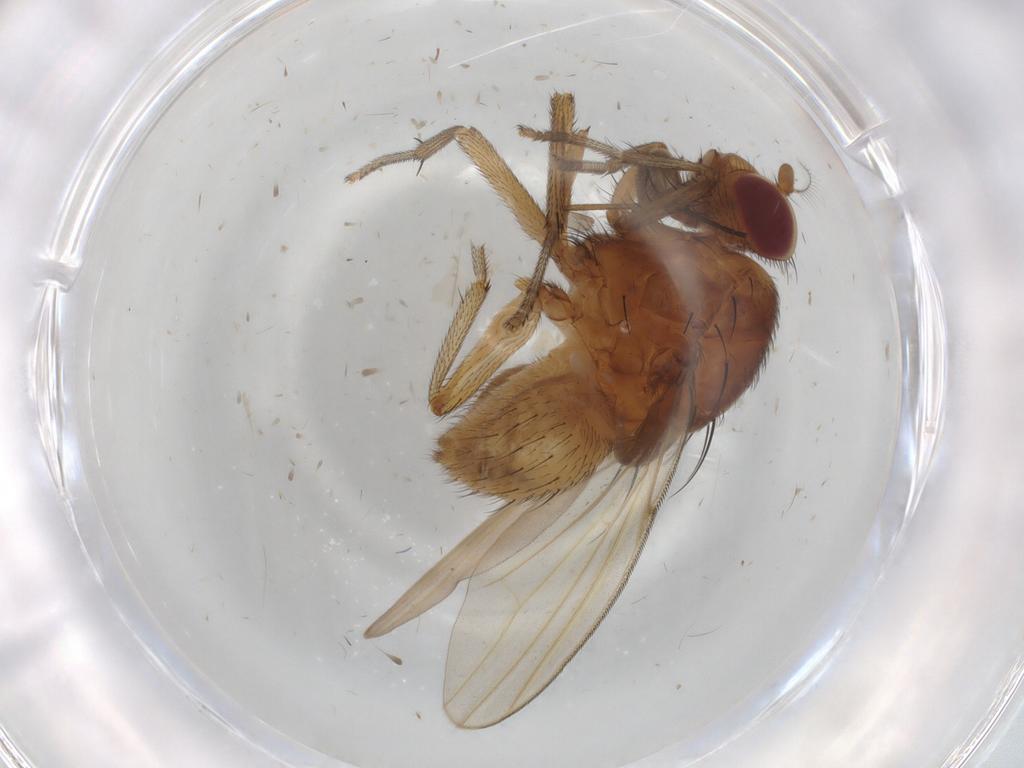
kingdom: Animalia
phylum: Arthropoda
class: Insecta
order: Diptera
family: Lauxaniidae
